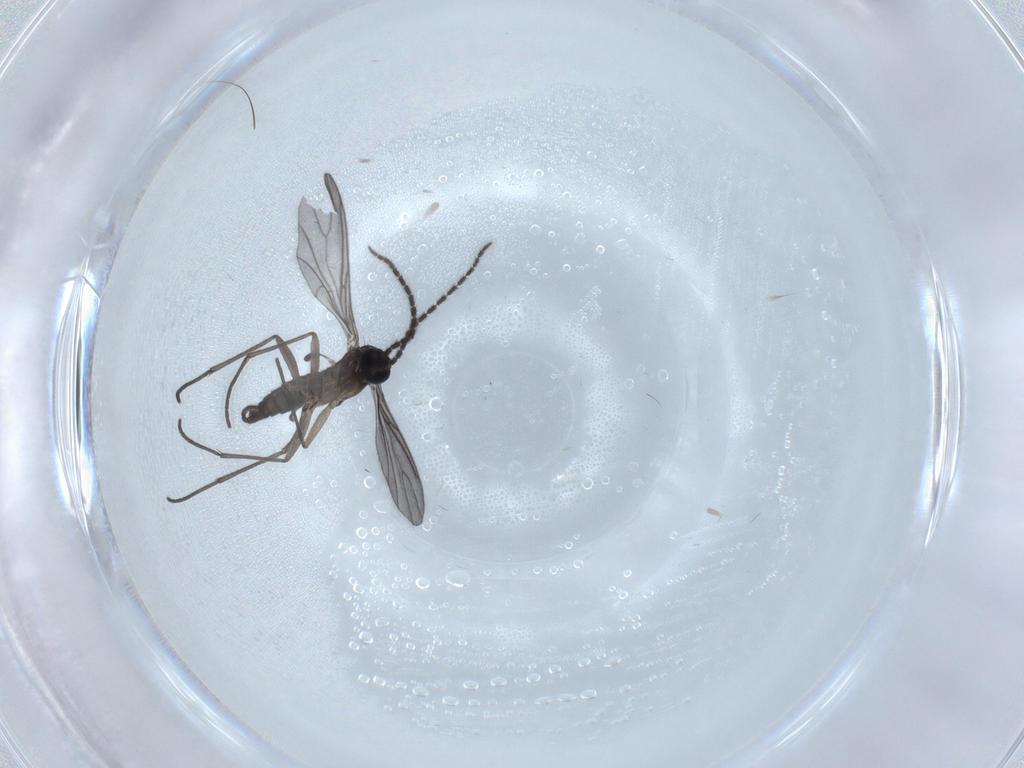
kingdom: Animalia
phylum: Arthropoda
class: Insecta
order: Diptera
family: Sciaridae
